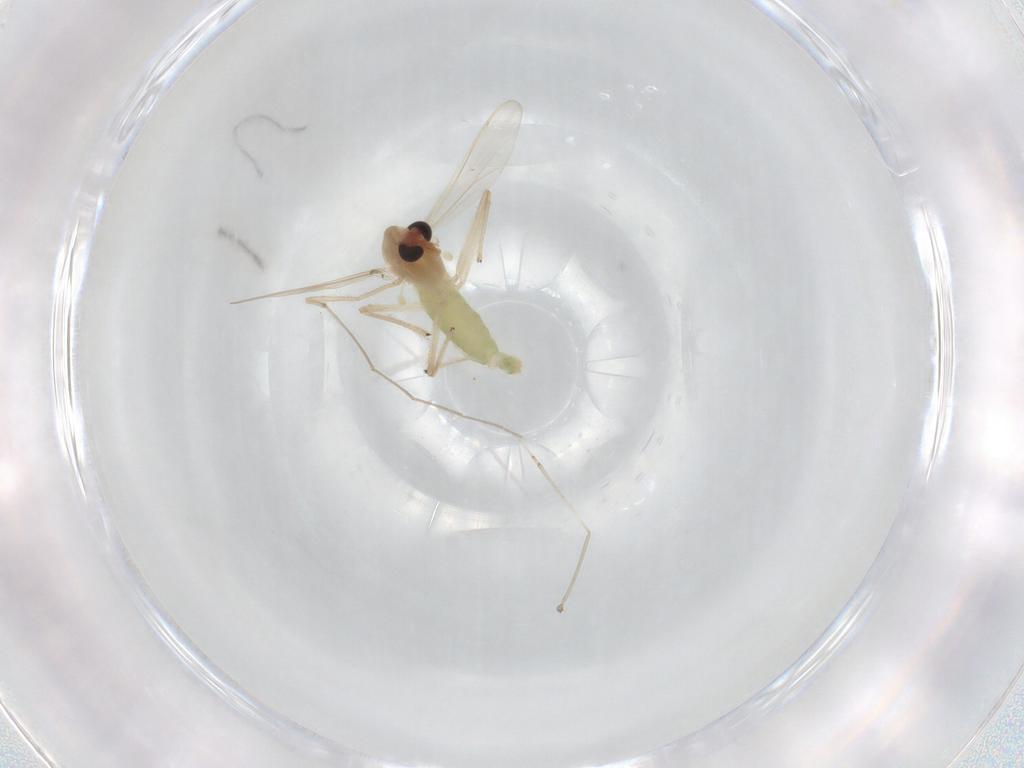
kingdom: Animalia
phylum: Arthropoda
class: Insecta
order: Diptera
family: Chironomidae
